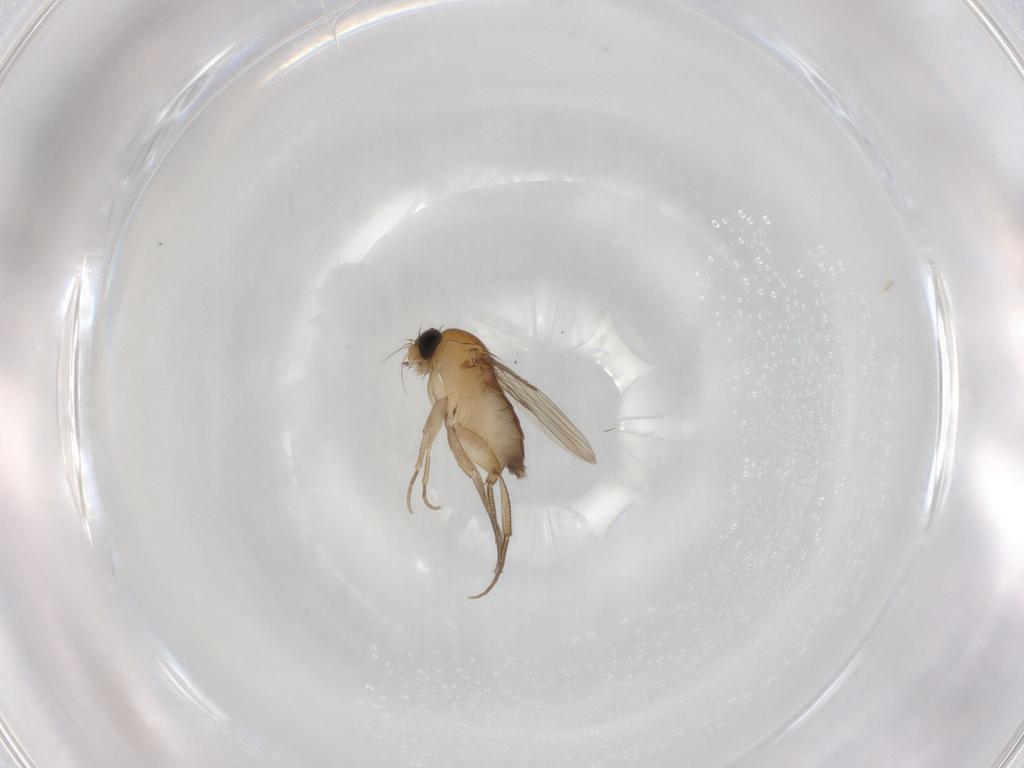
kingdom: Animalia
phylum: Arthropoda
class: Insecta
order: Diptera
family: Phoridae
